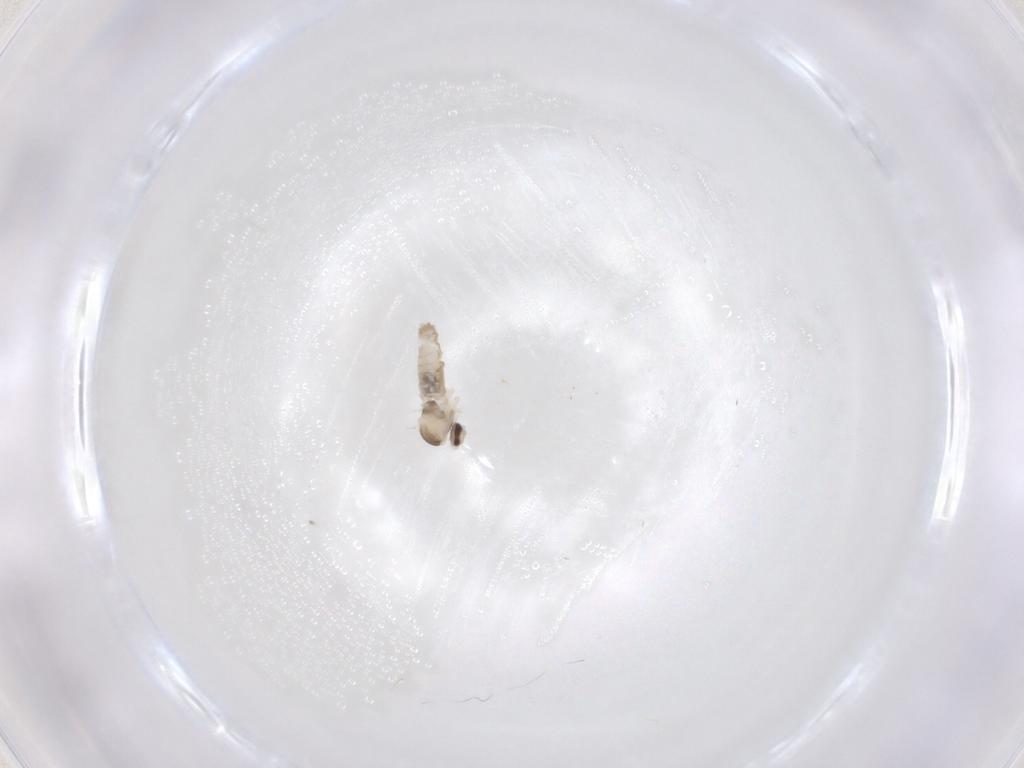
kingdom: Animalia
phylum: Arthropoda
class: Insecta
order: Diptera
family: Cecidomyiidae
